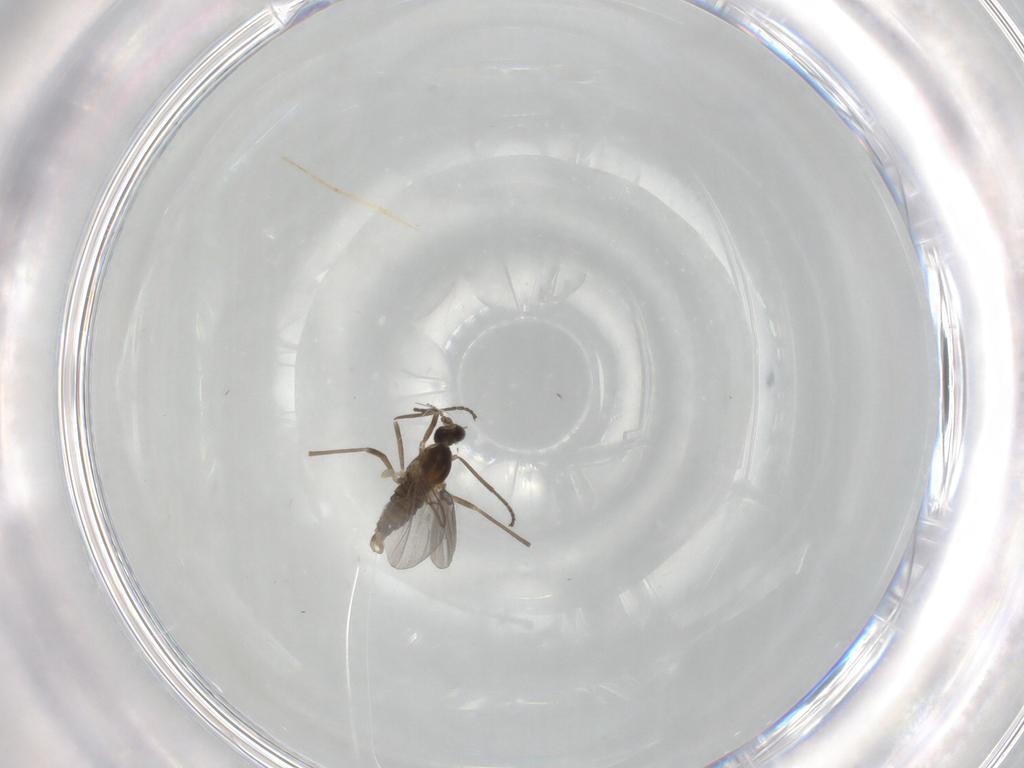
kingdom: Animalia
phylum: Arthropoda
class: Insecta
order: Diptera
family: Cecidomyiidae
